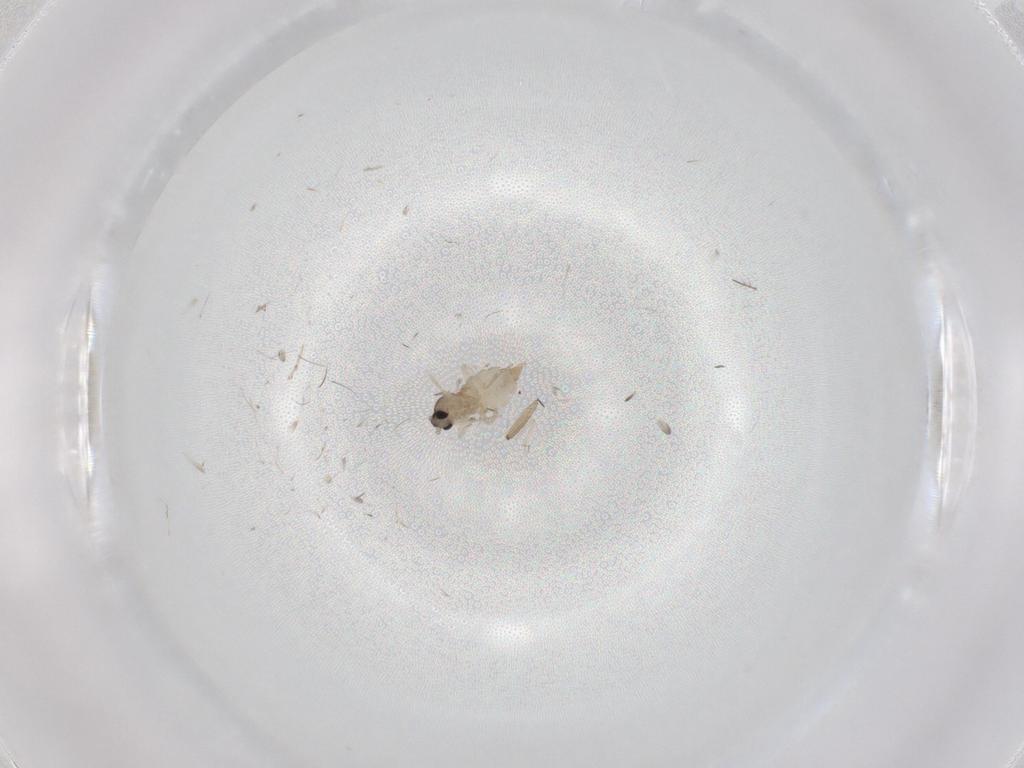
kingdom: Animalia
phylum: Arthropoda
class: Insecta
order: Diptera
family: Cecidomyiidae
